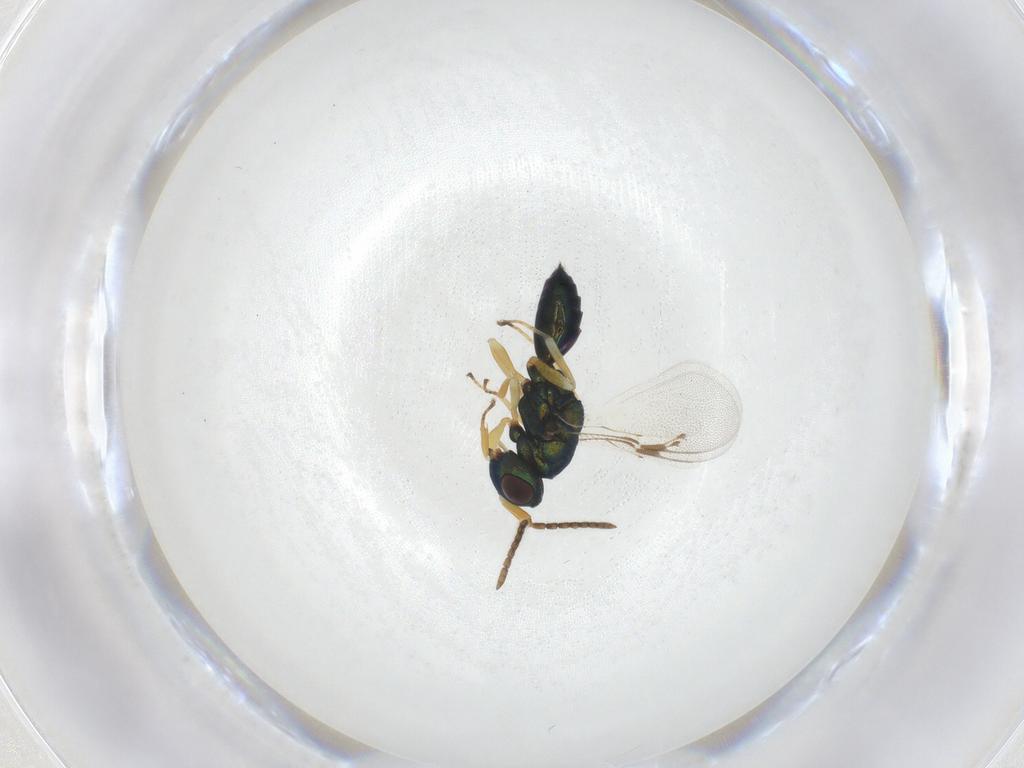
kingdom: Animalia
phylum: Arthropoda
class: Insecta
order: Hymenoptera
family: Pteromalidae
